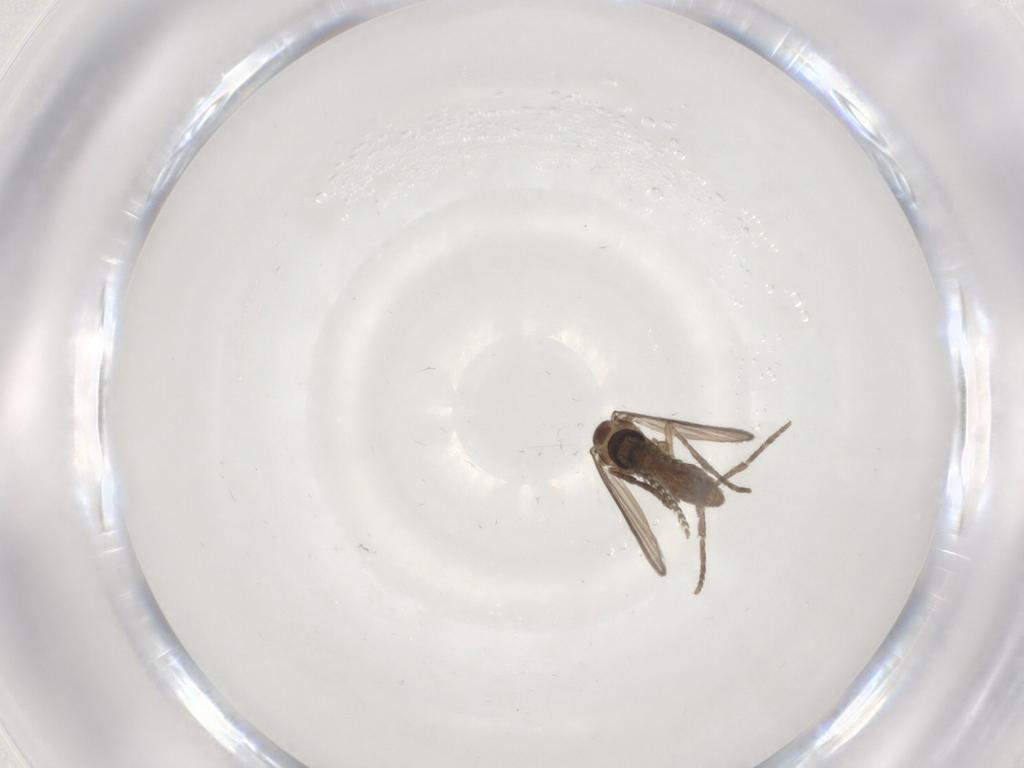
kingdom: Animalia
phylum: Arthropoda
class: Insecta
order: Diptera
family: Psychodidae
